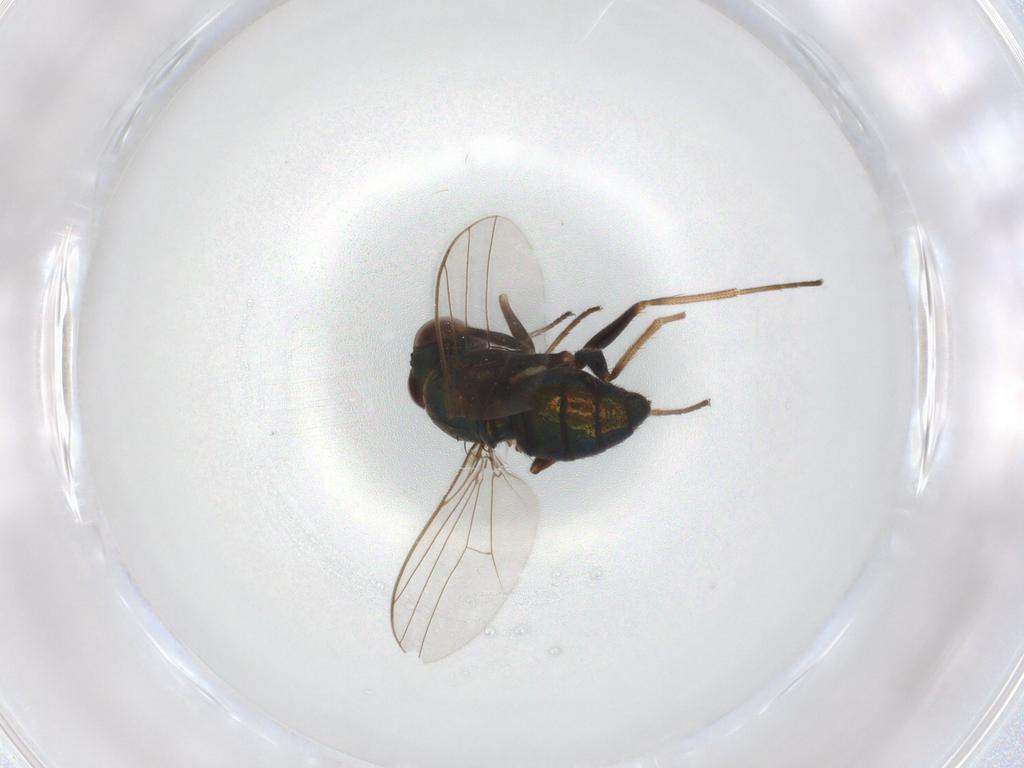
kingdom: Animalia
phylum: Arthropoda
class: Insecta
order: Diptera
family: Dolichopodidae
